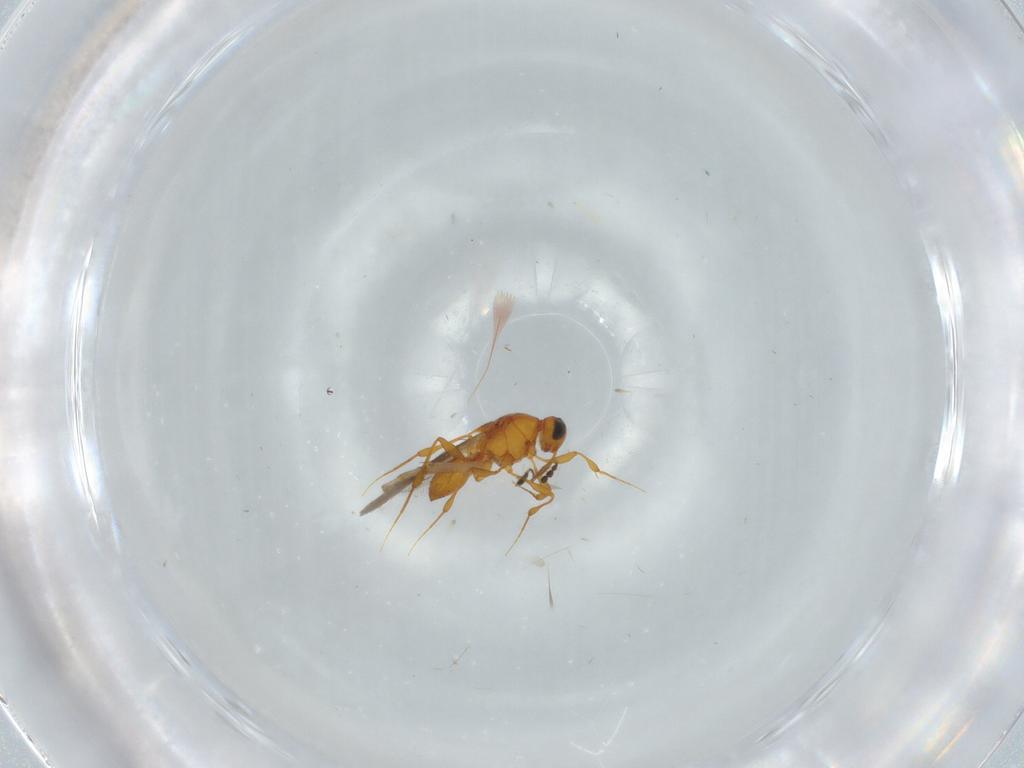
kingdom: Animalia
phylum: Arthropoda
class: Insecta
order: Hymenoptera
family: Platygastridae
